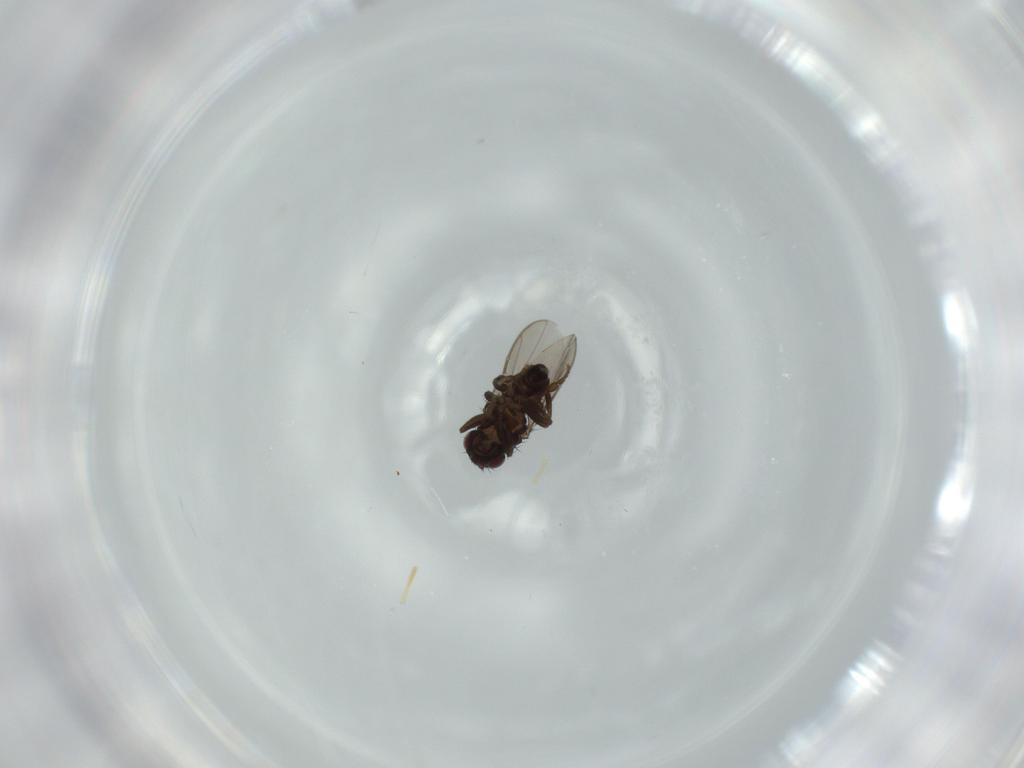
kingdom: Animalia
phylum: Arthropoda
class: Insecta
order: Diptera
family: Sphaeroceridae
